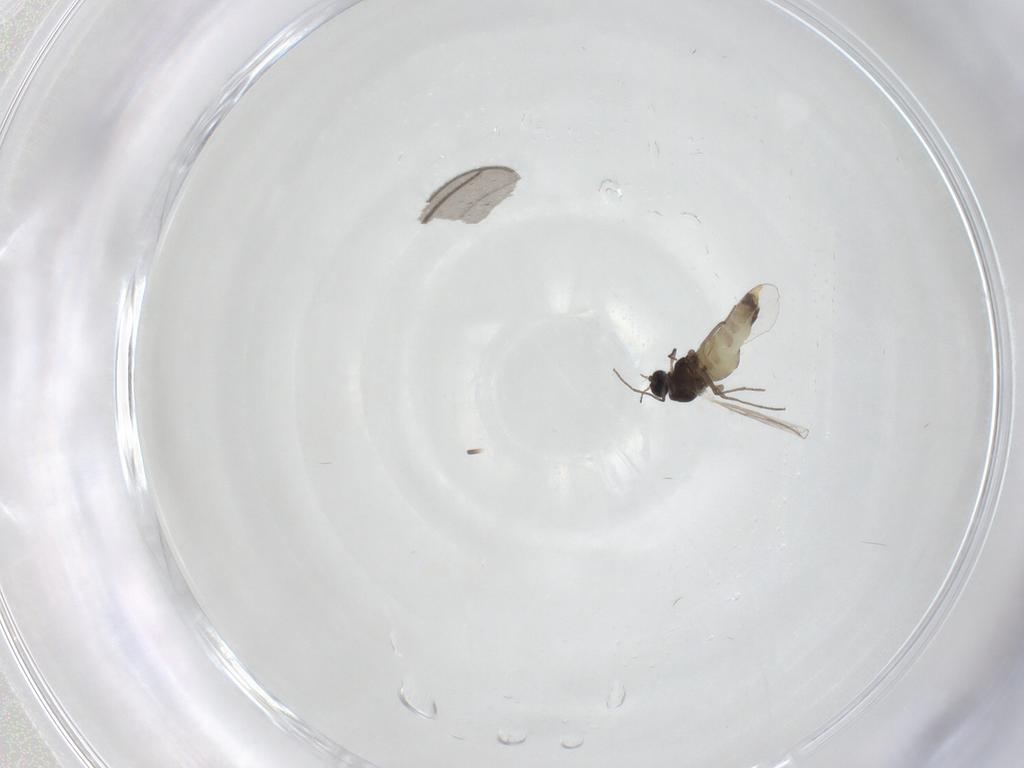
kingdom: Animalia
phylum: Arthropoda
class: Insecta
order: Diptera
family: Chironomidae
